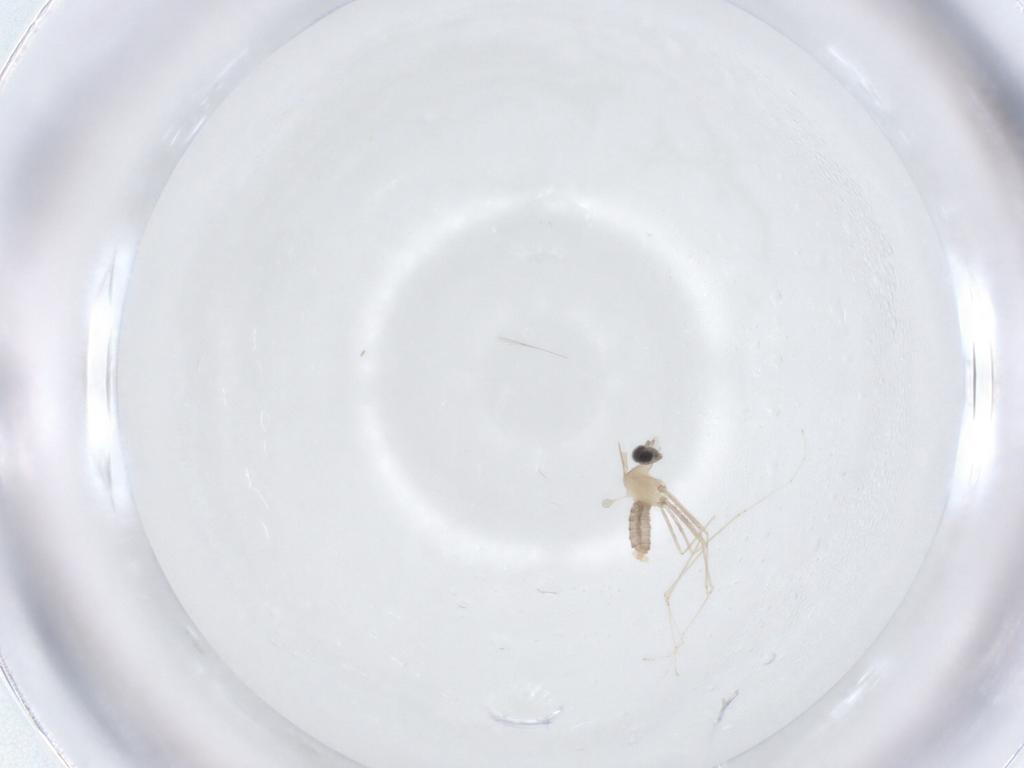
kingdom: Animalia
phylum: Arthropoda
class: Insecta
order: Diptera
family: Cecidomyiidae
